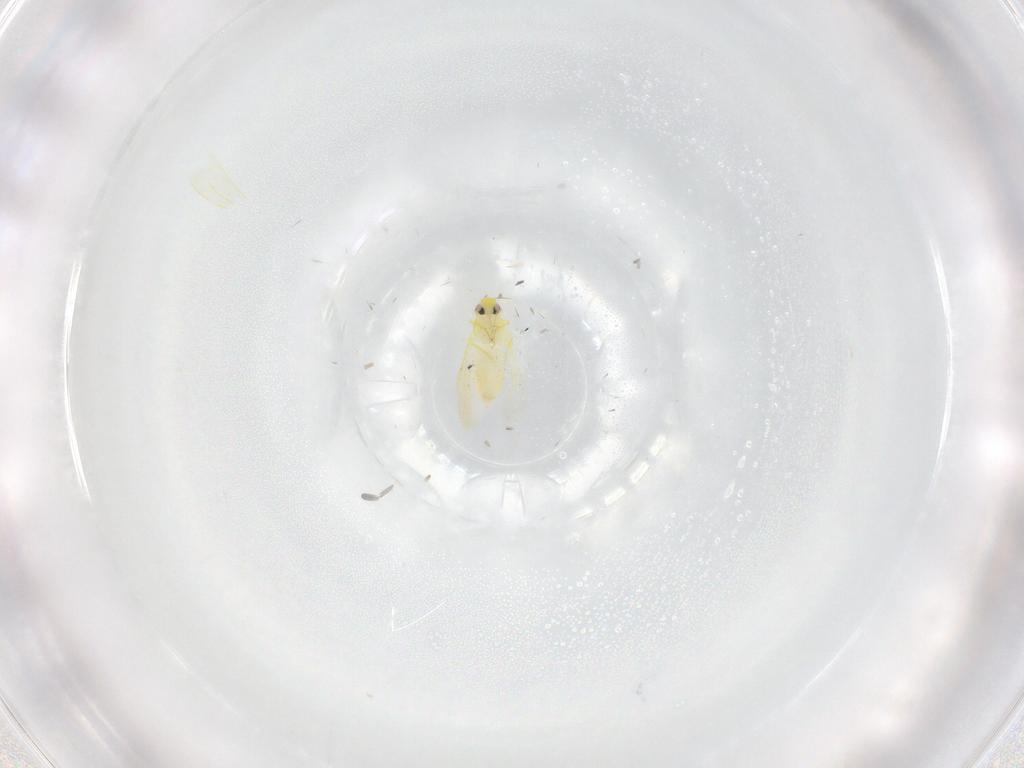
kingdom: Animalia
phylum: Arthropoda
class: Insecta
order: Hemiptera
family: Aleyrodidae
